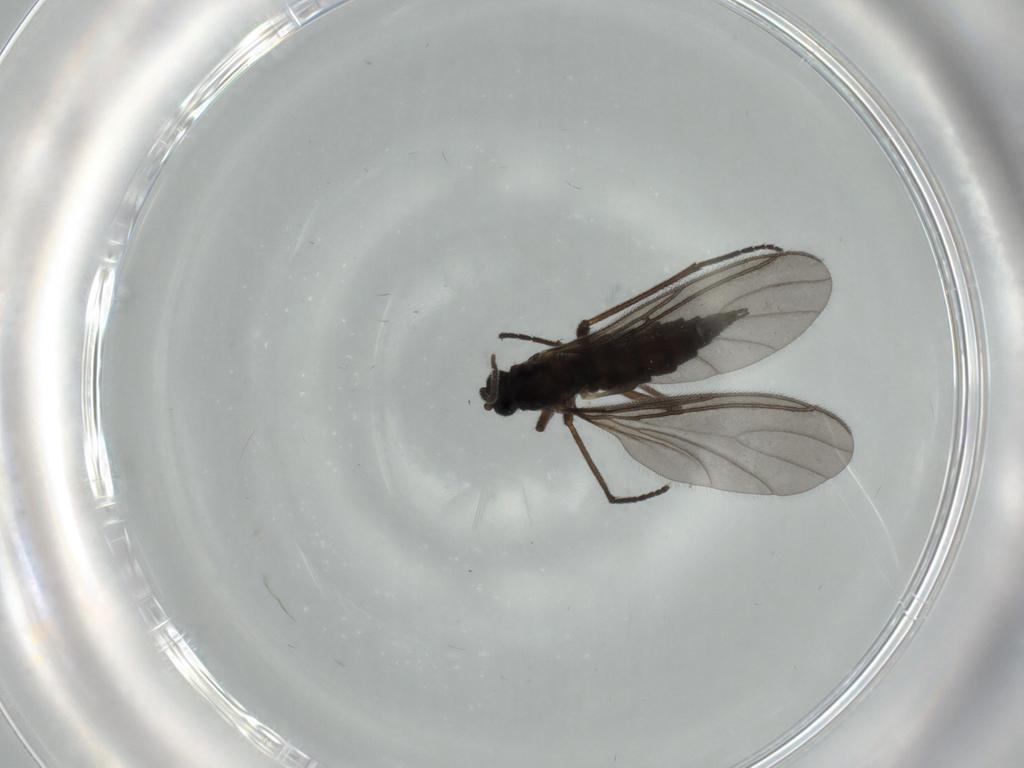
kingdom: Animalia
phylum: Arthropoda
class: Insecta
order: Diptera
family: Sciaridae
